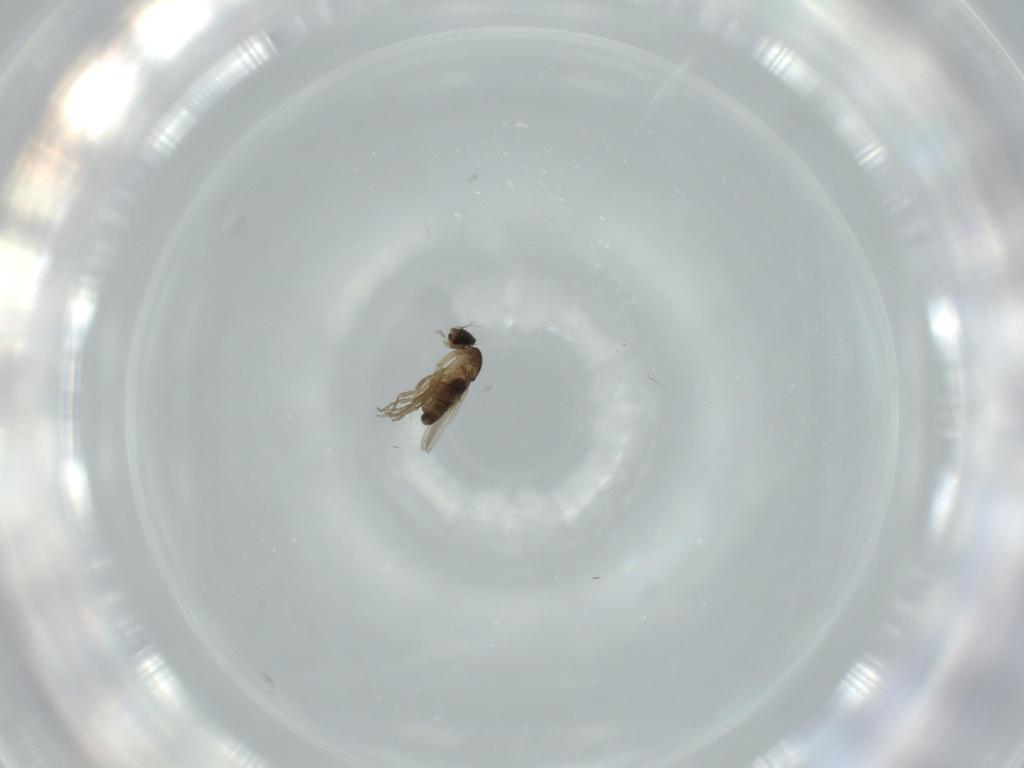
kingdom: Animalia
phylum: Arthropoda
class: Insecta
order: Diptera
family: Phoridae
